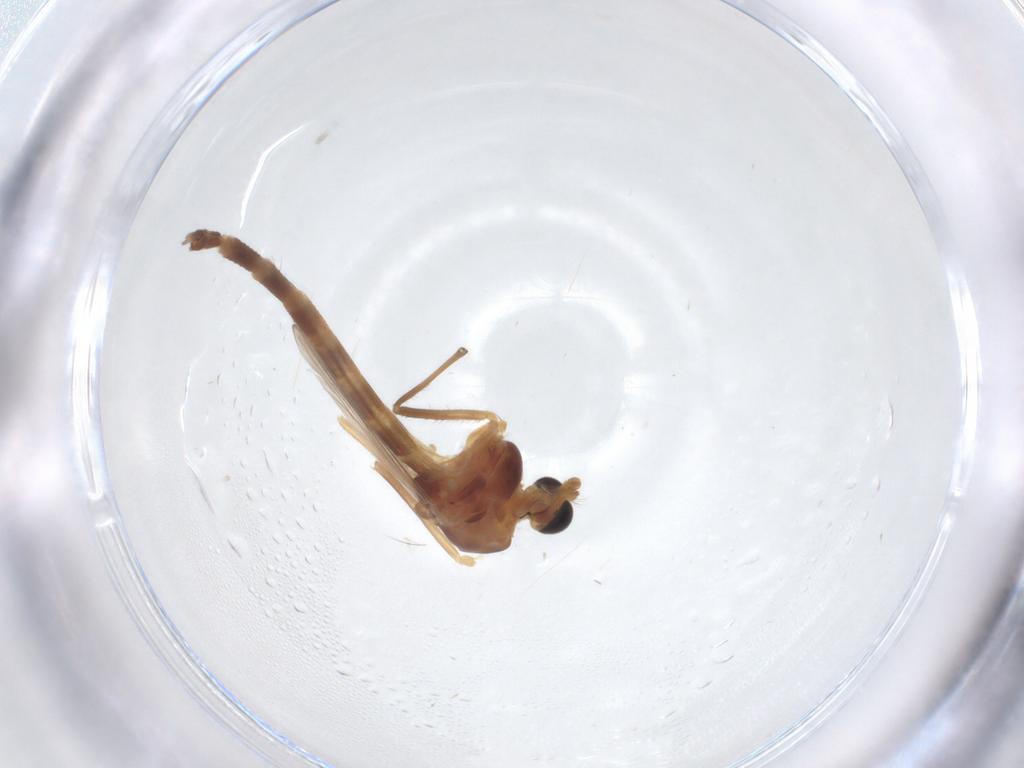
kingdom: Animalia
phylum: Arthropoda
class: Insecta
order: Diptera
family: Chironomidae
